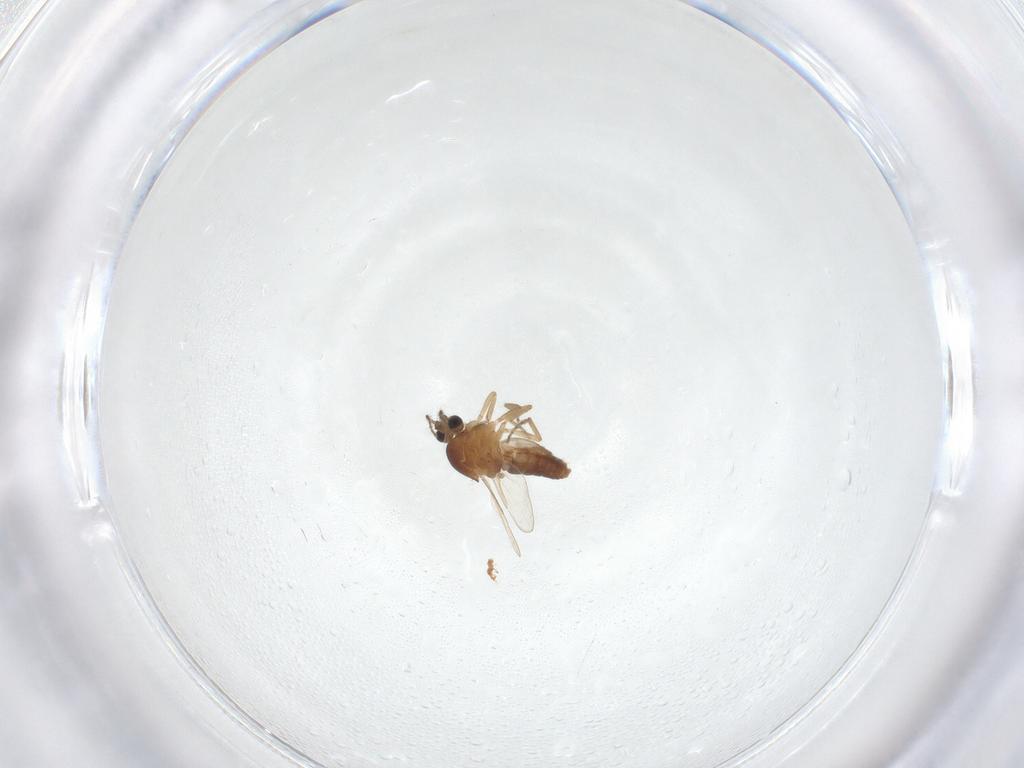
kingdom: Animalia
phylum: Arthropoda
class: Insecta
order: Diptera
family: Ceratopogonidae
